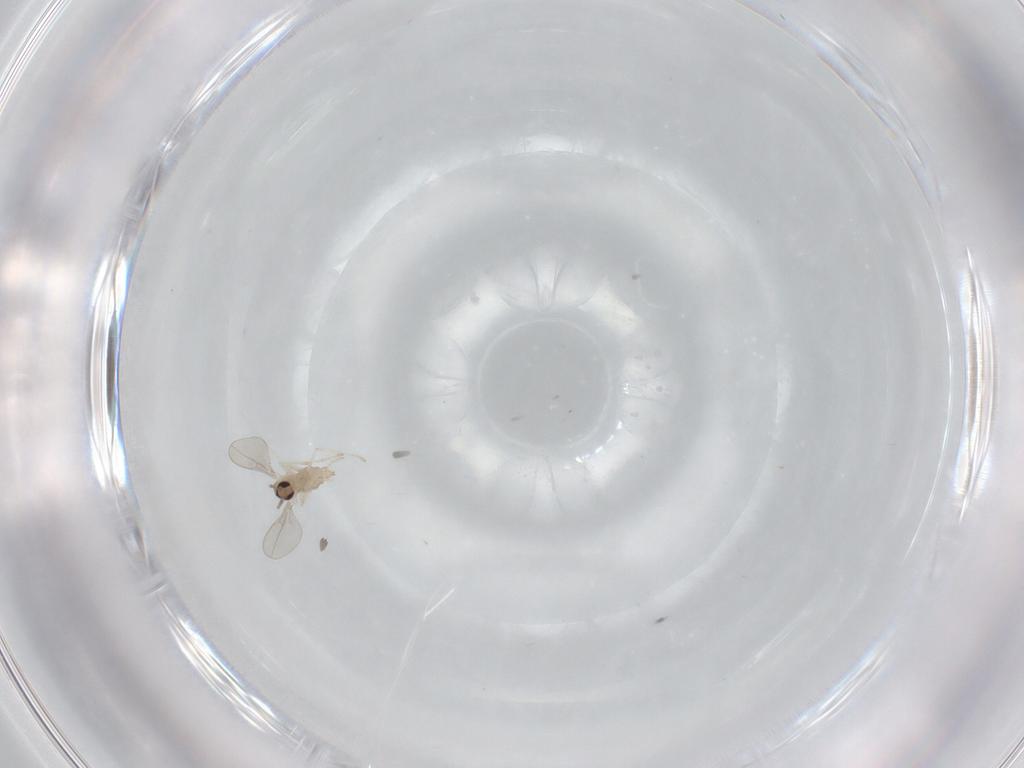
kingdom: Animalia
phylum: Arthropoda
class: Insecta
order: Diptera
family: Cecidomyiidae
